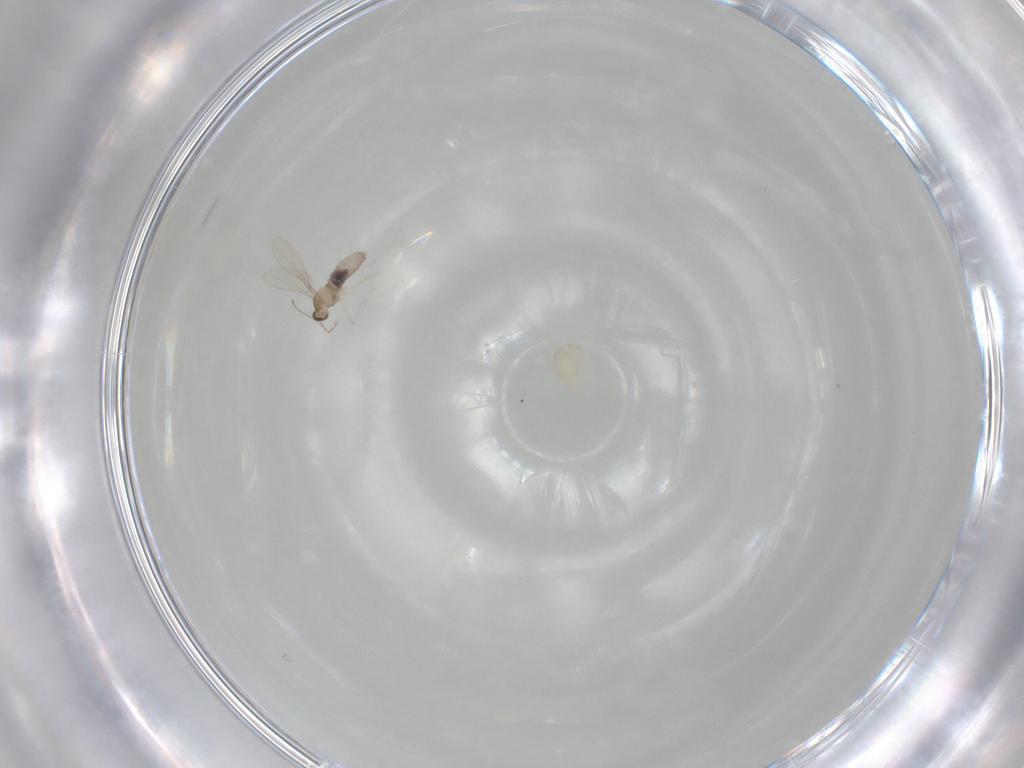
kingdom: Animalia
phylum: Arthropoda
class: Insecta
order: Diptera
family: Cecidomyiidae
